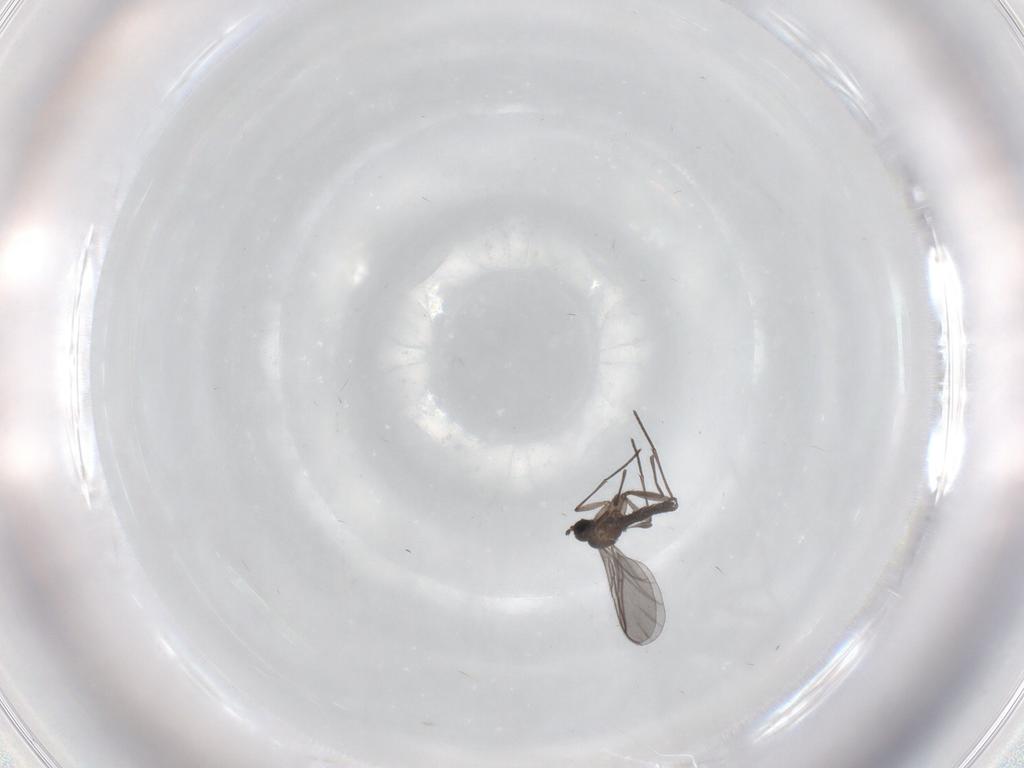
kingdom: Animalia
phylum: Arthropoda
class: Insecta
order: Diptera
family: Chironomidae
